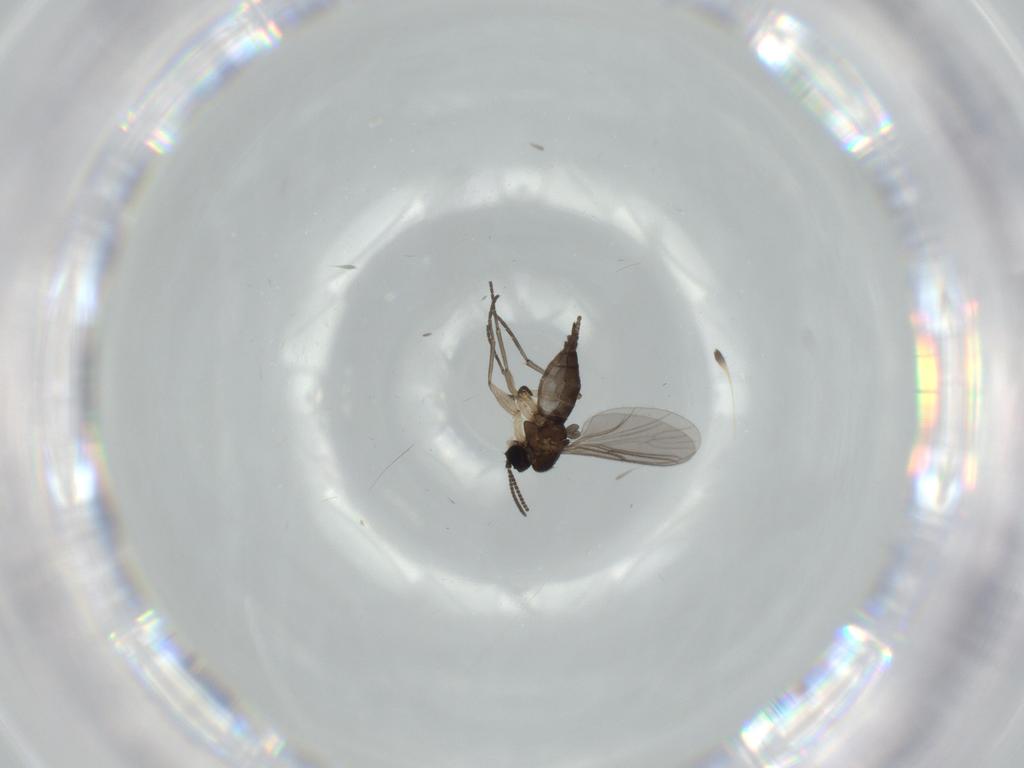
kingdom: Animalia
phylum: Arthropoda
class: Insecta
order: Diptera
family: Sciaridae
